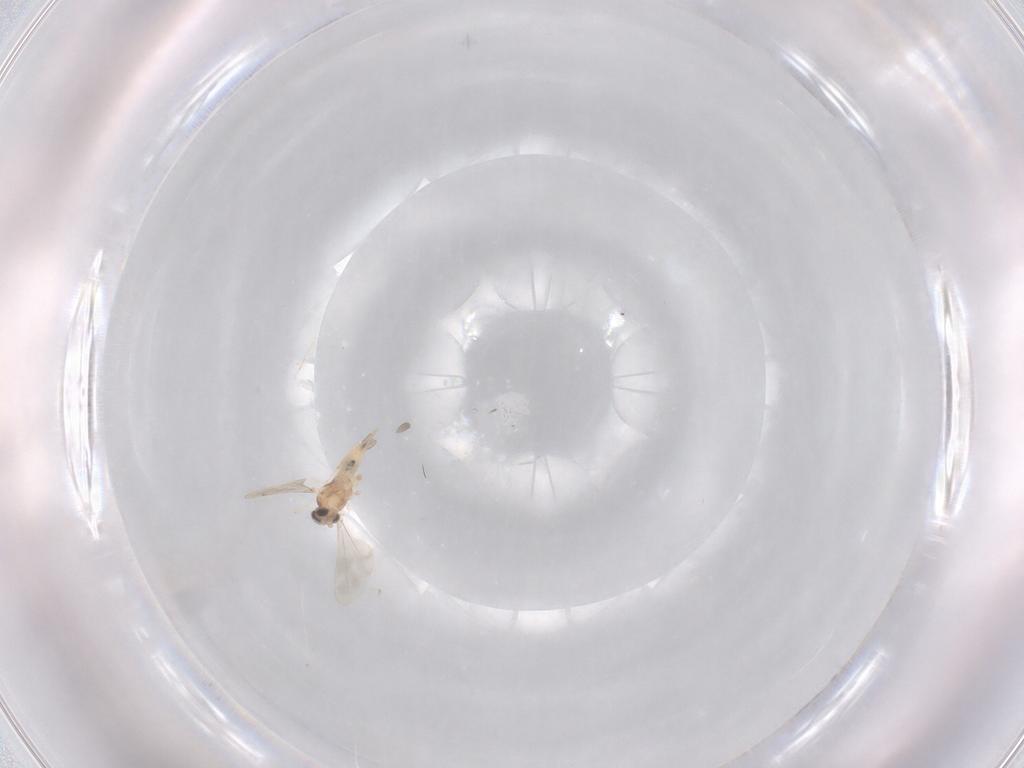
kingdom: Animalia
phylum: Arthropoda
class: Insecta
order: Diptera
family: Cecidomyiidae
